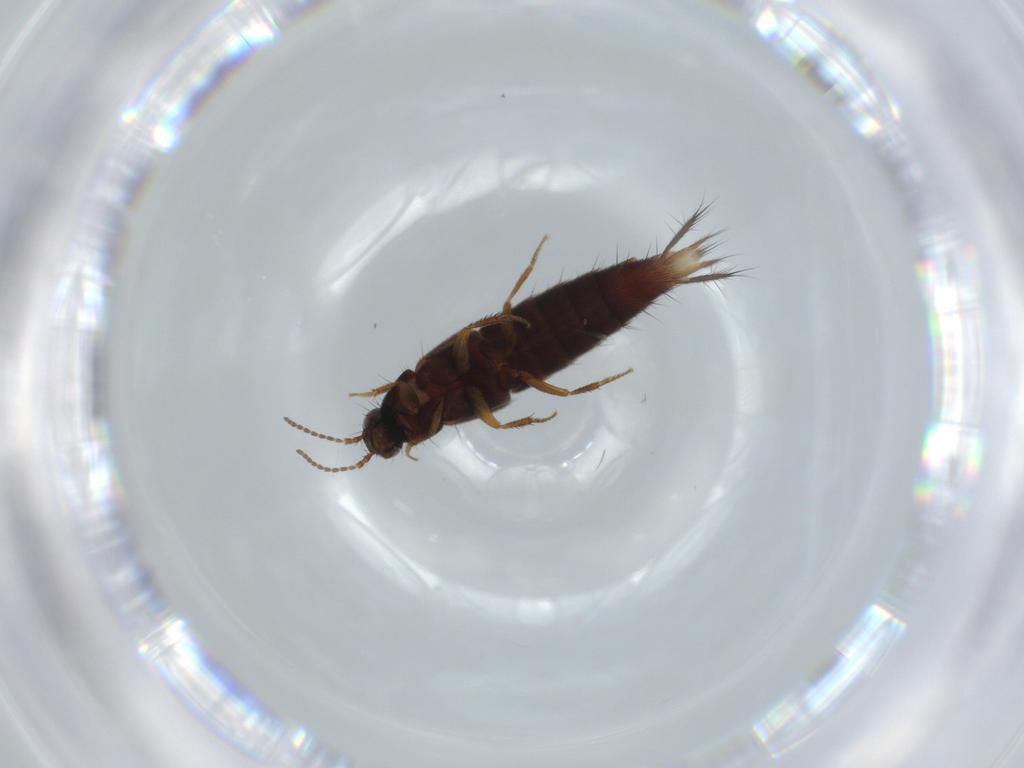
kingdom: Animalia
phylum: Arthropoda
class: Insecta
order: Coleoptera
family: Staphylinidae
